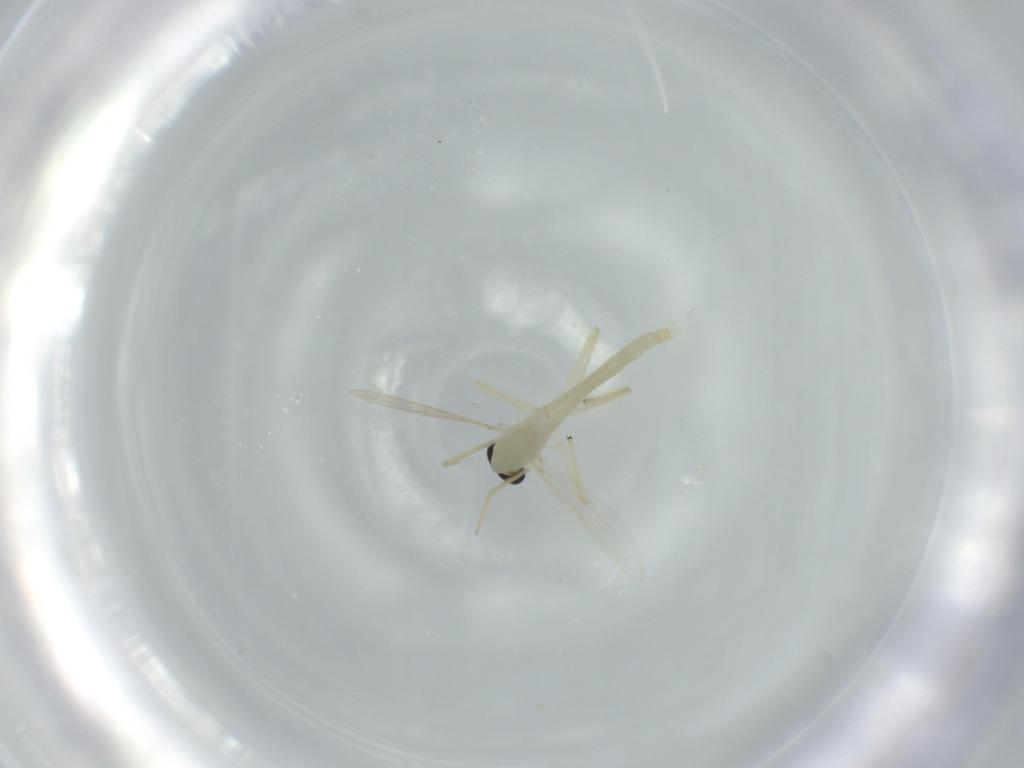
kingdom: Animalia
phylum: Arthropoda
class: Insecta
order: Diptera
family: Chironomidae
